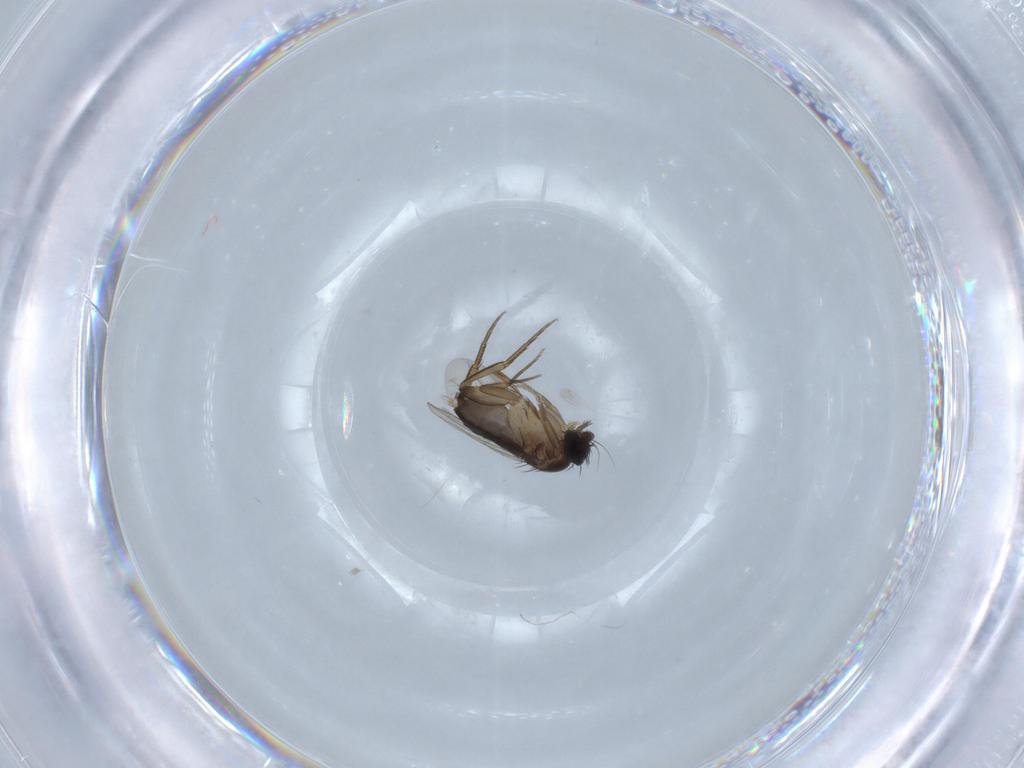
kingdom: Animalia
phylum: Arthropoda
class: Insecta
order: Diptera
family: Phoridae
